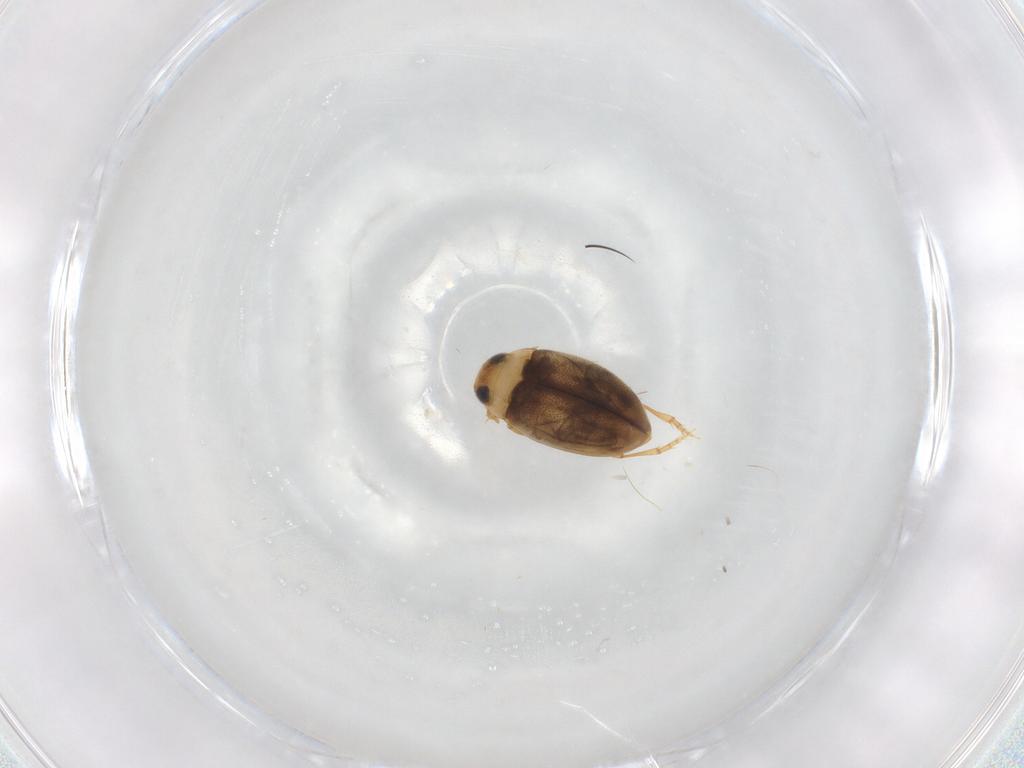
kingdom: Animalia
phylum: Arthropoda
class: Insecta
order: Coleoptera
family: Dytiscidae
